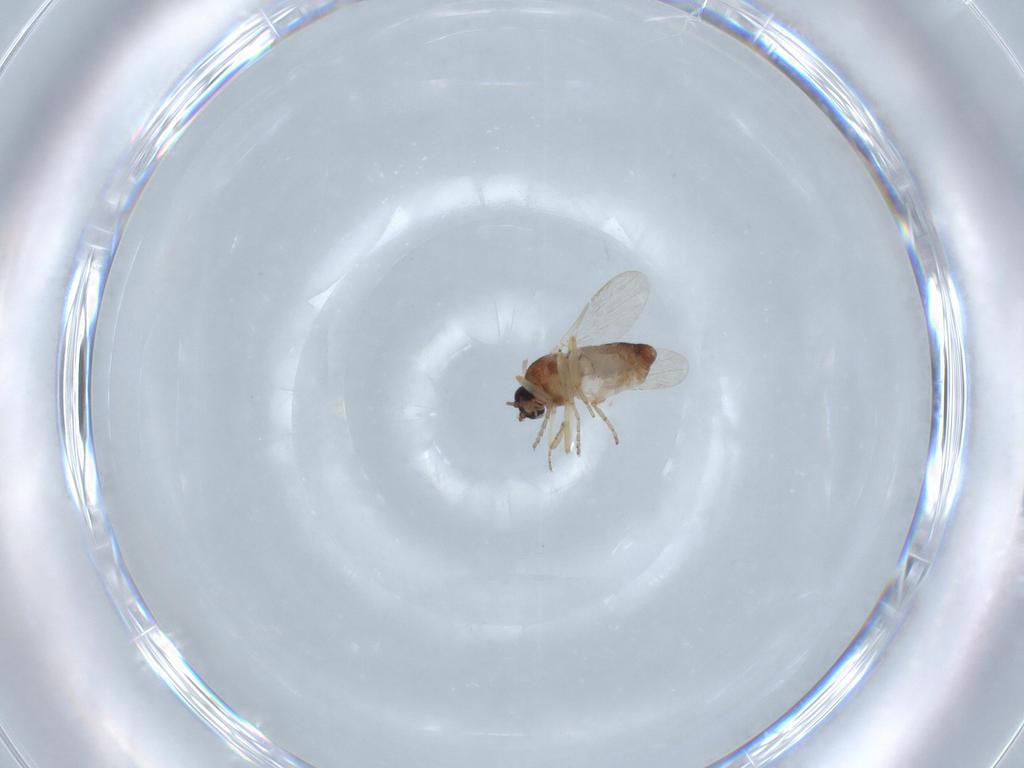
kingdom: Animalia
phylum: Arthropoda
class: Insecta
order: Diptera
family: Ceratopogonidae
